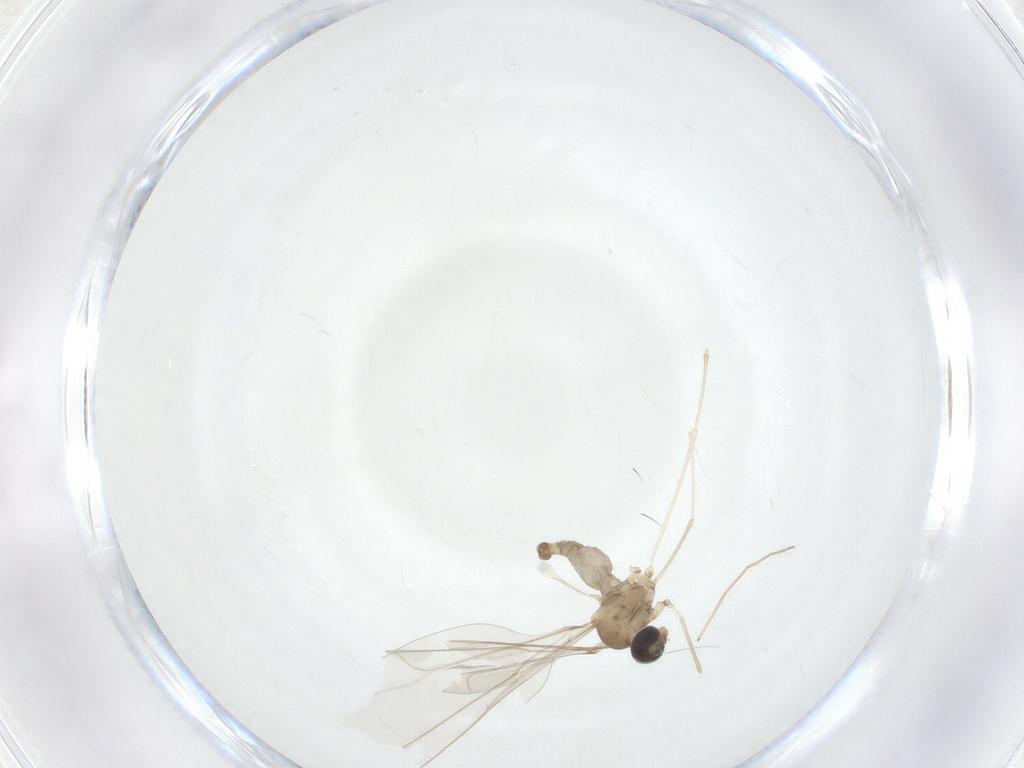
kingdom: Animalia
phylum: Arthropoda
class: Insecta
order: Diptera
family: Cecidomyiidae
